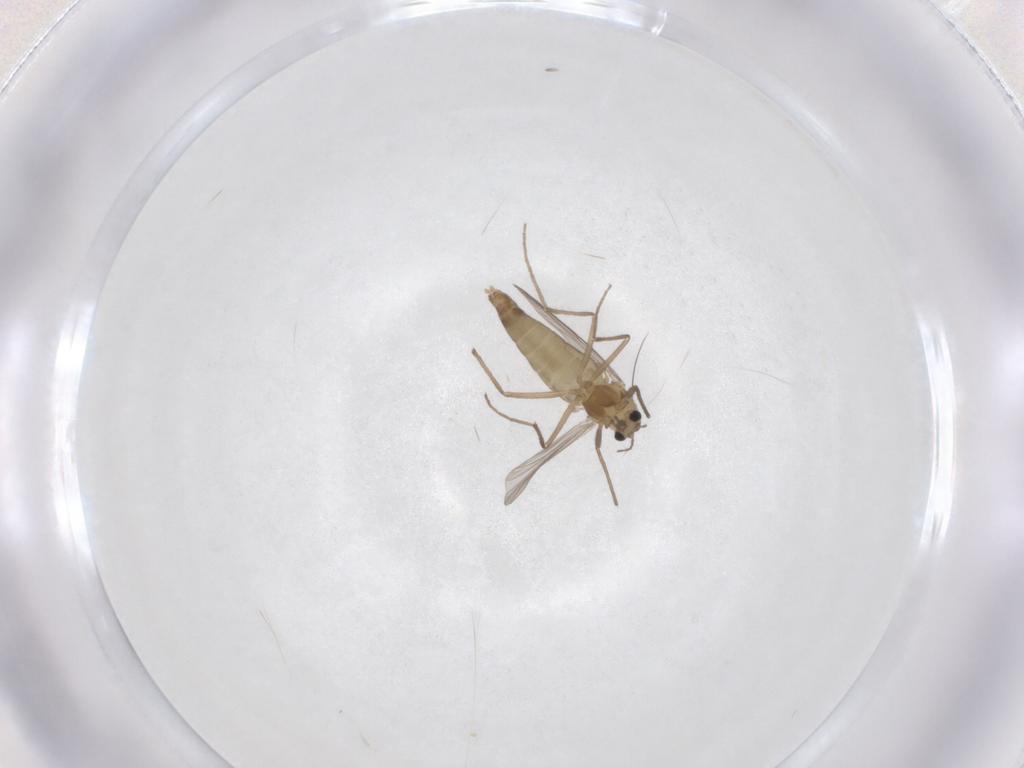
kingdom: Animalia
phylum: Arthropoda
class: Insecta
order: Diptera
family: Chironomidae
